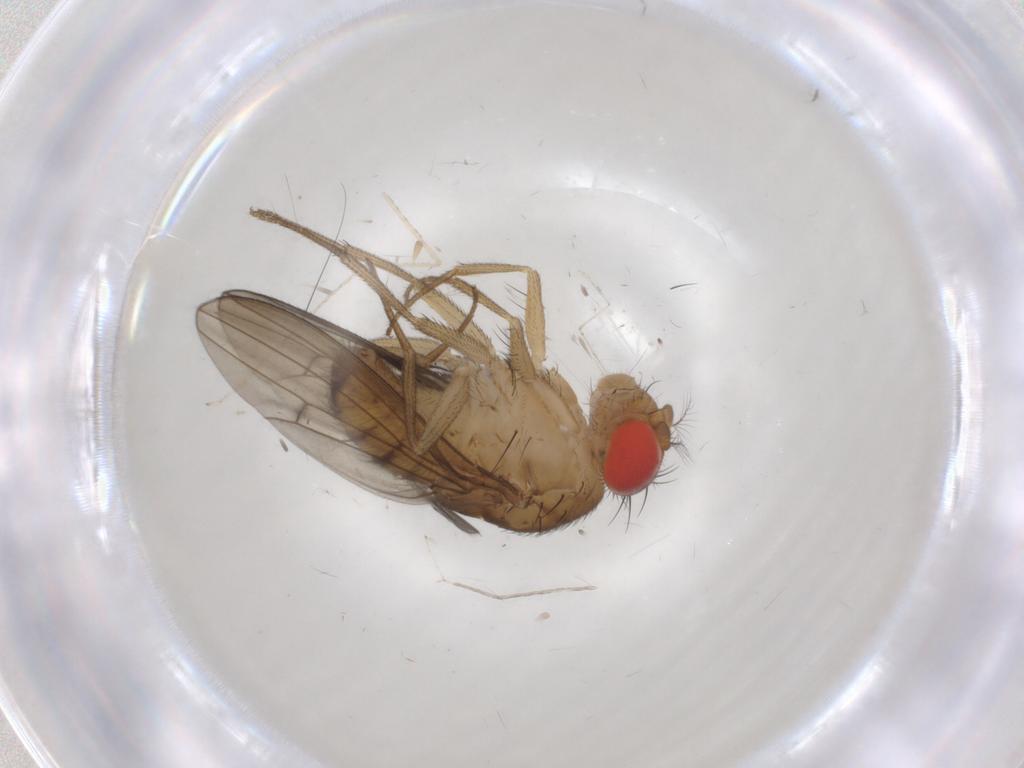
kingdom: Animalia
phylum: Arthropoda
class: Insecta
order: Diptera
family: Drosophilidae
